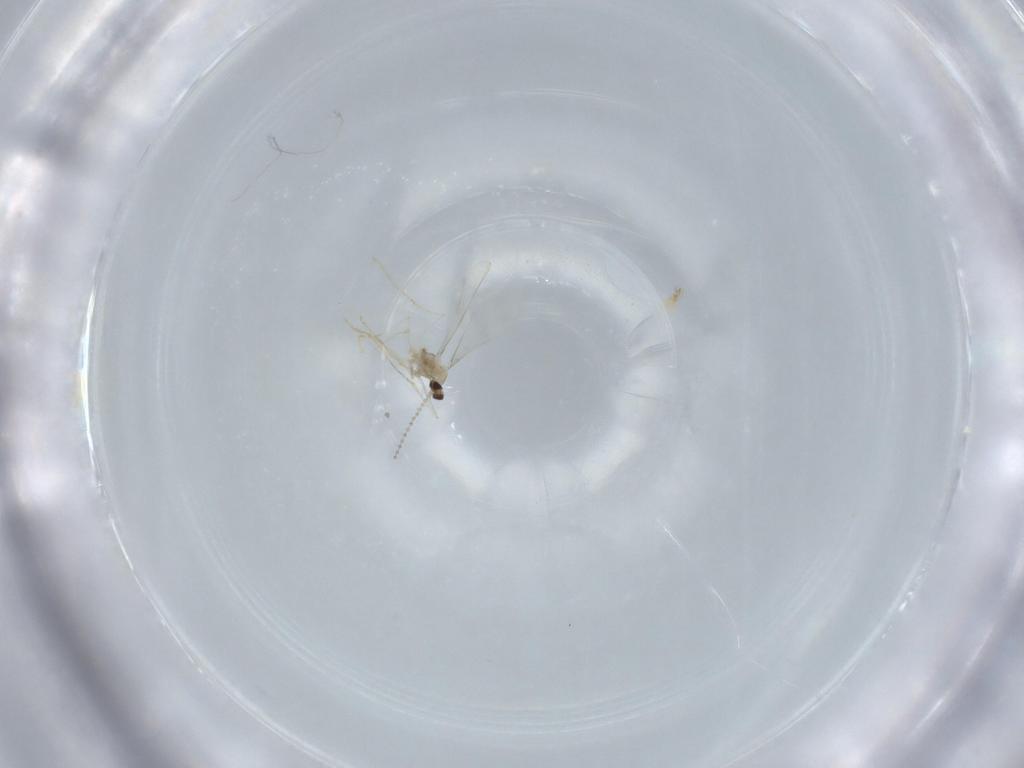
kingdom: Animalia
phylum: Arthropoda
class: Insecta
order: Diptera
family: Cecidomyiidae
